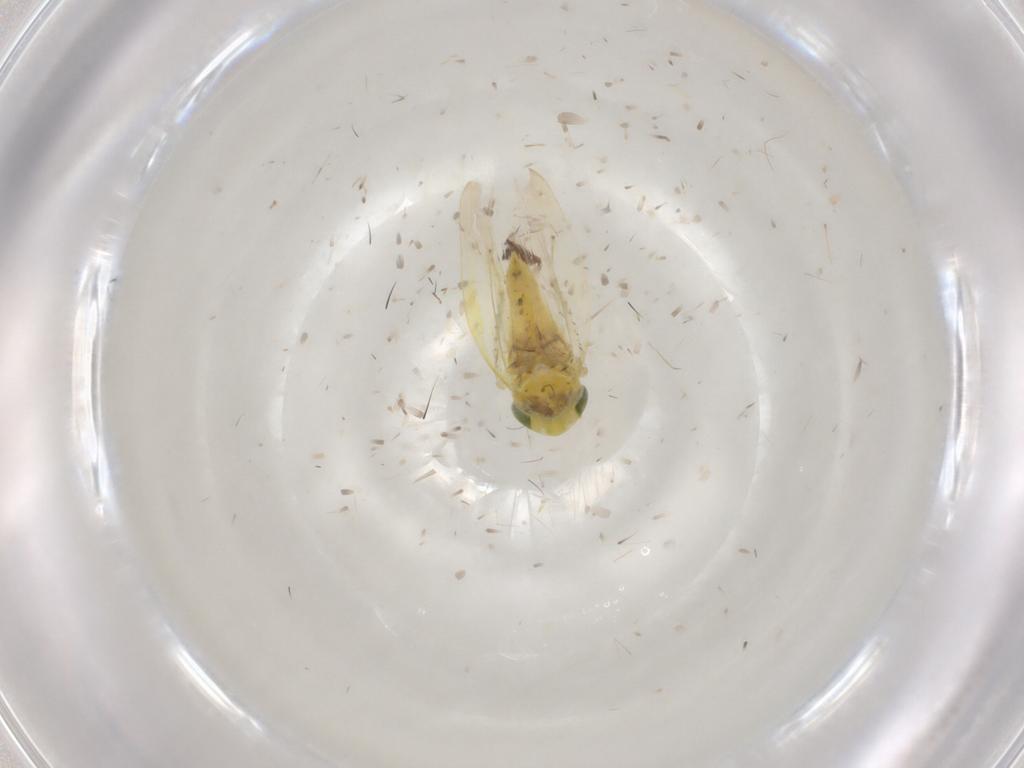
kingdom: Animalia
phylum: Arthropoda
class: Insecta
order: Hemiptera
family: Cicadellidae
